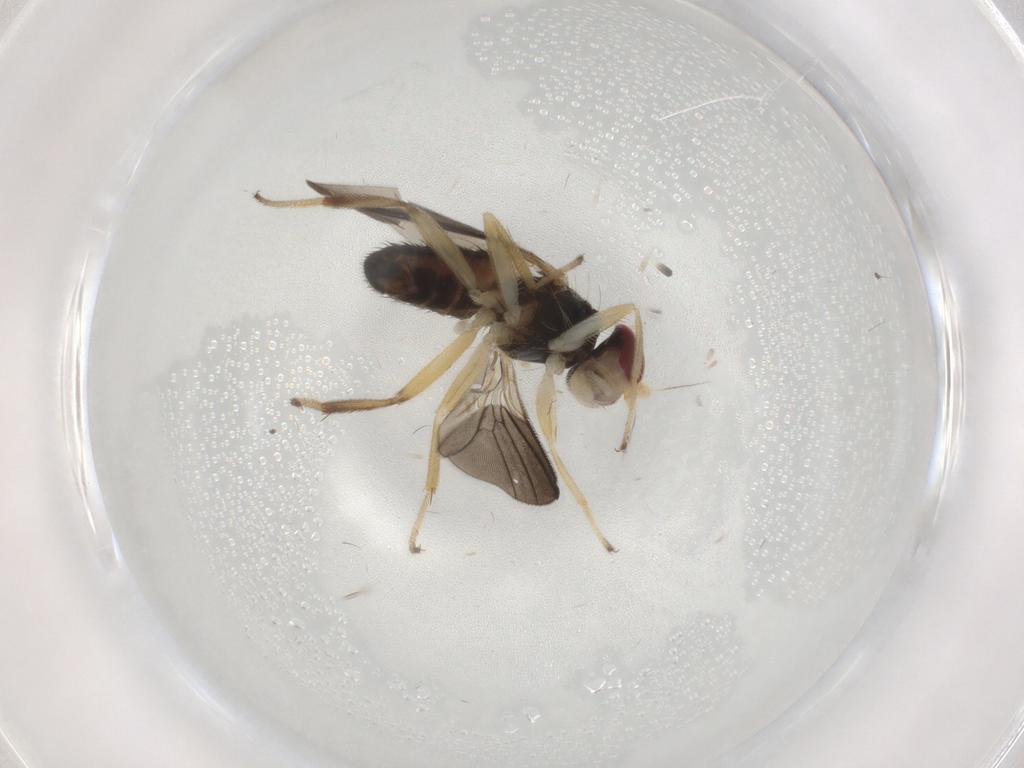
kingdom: Animalia
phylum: Arthropoda
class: Insecta
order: Diptera
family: Clusiidae
